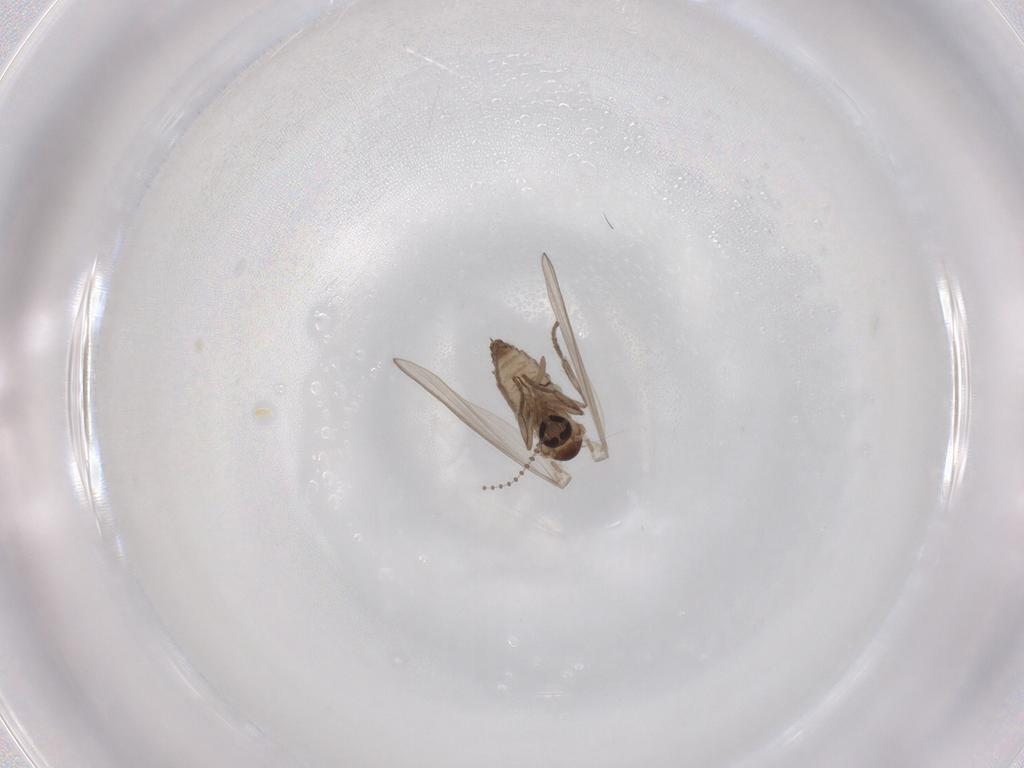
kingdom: Animalia
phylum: Arthropoda
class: Insecta
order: Diptera
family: Psychodidae
